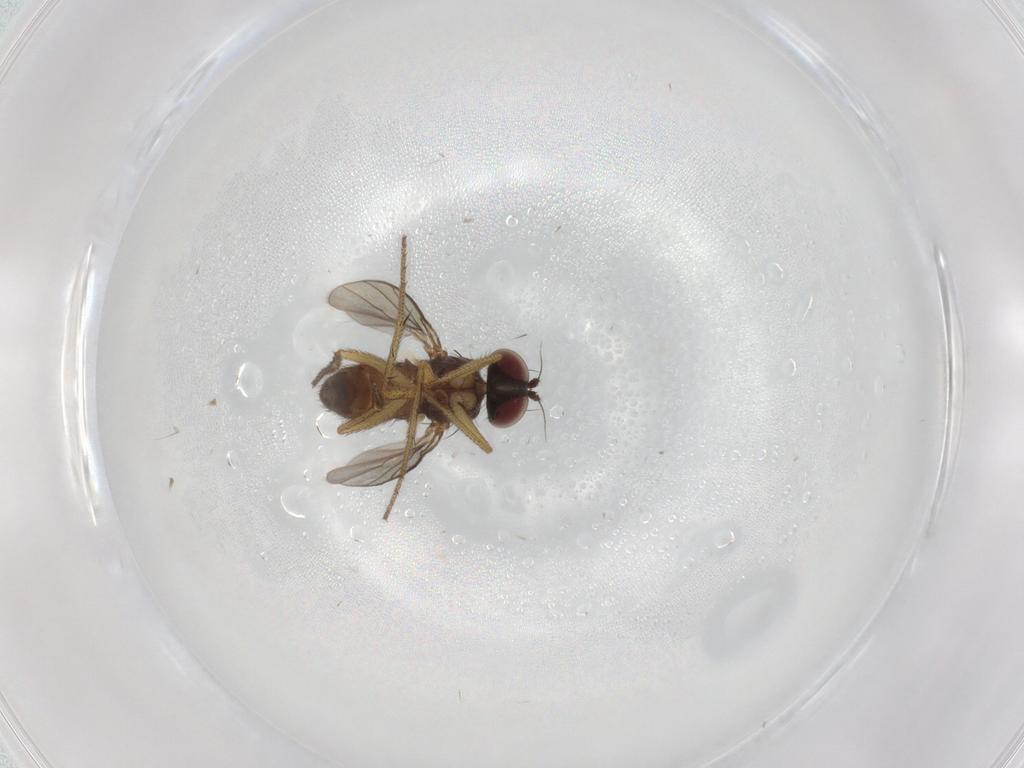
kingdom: Animalia
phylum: Arthropoda
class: Insecta
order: Diptera
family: Dolichopodidae
